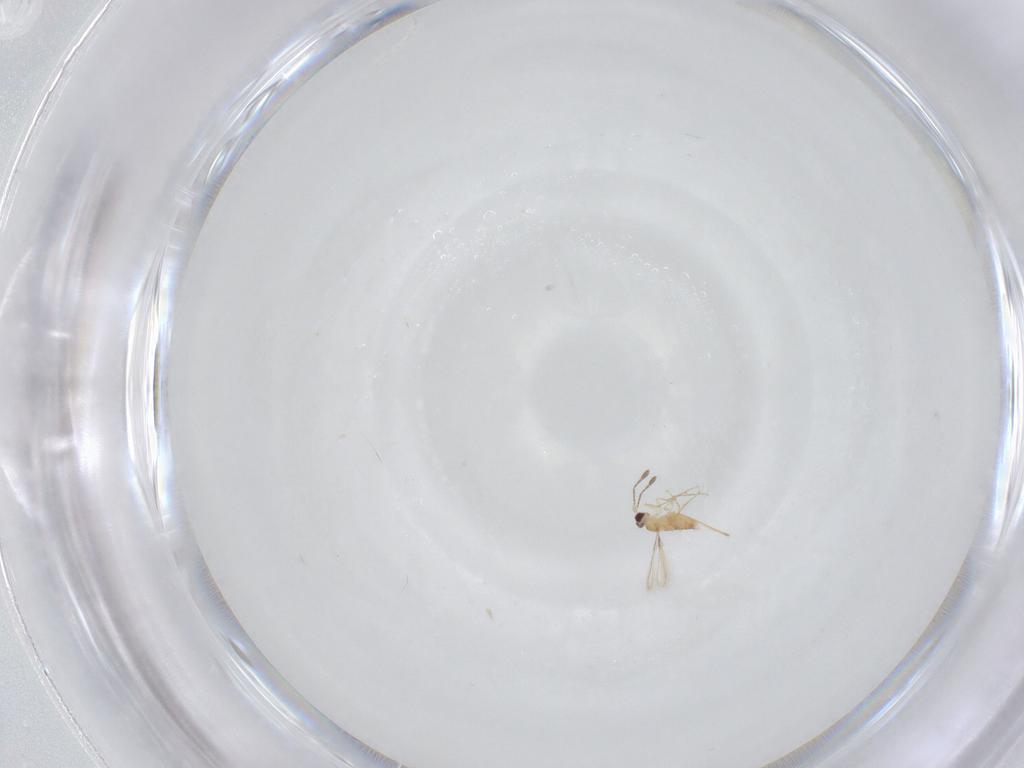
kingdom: Animalia
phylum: Arthropoda
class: Insecta
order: Hymenoptera
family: Mymaridae
